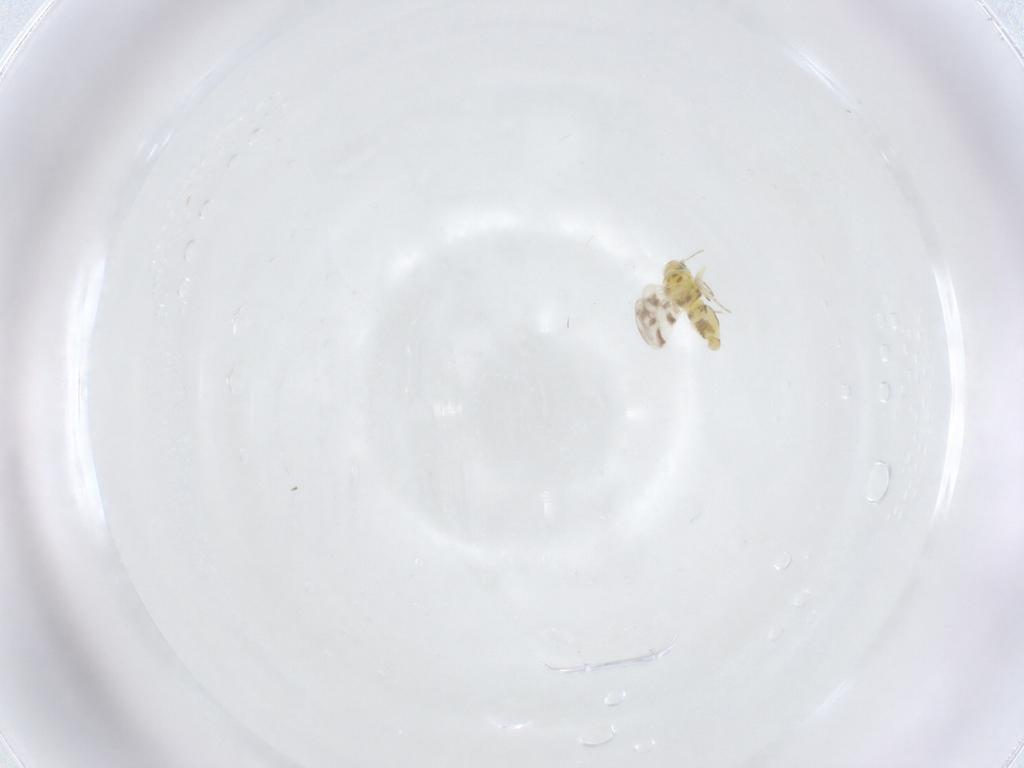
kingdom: Animalia
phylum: Arthropoda
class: Insecta
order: Hemiptera
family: Aleyrodidae
